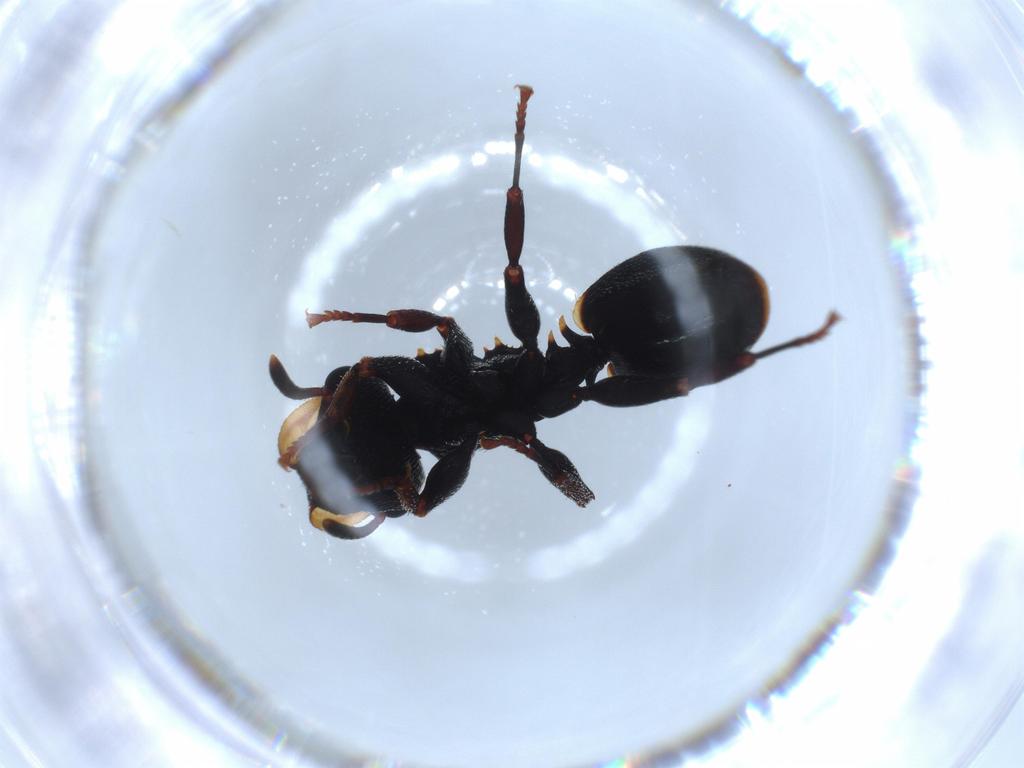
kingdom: Animalia
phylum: Arthropoda
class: Insecta
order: Hymenoptera
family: Formicidae
